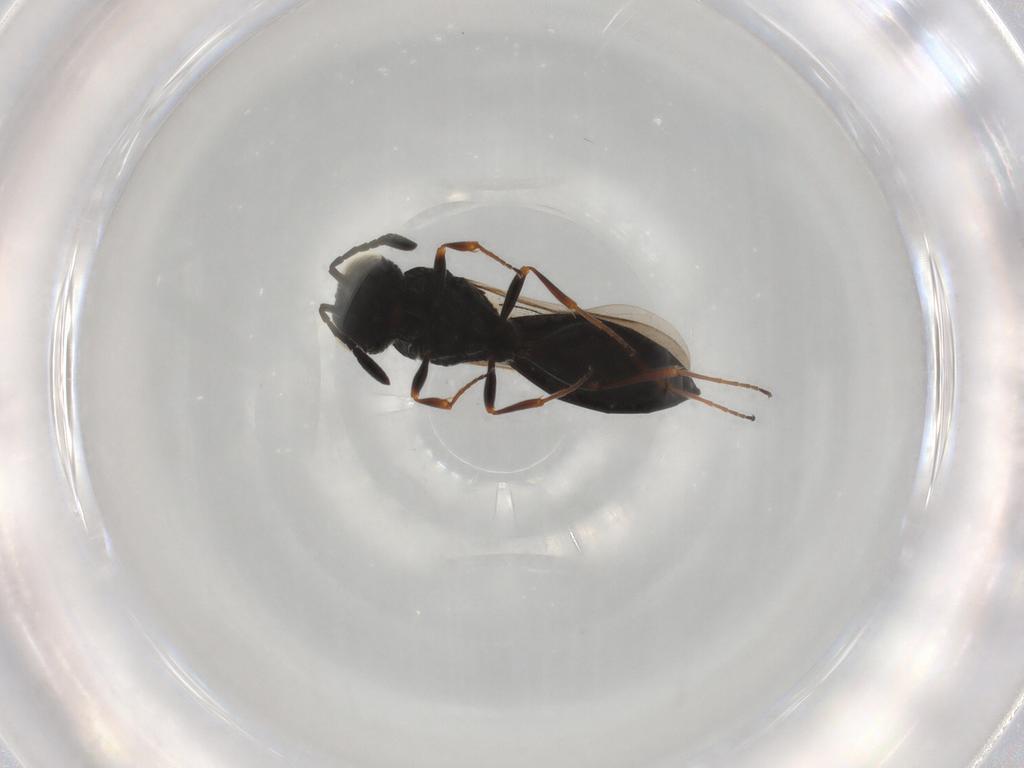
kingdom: Animalia
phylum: Arthropoda
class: Insecta
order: Hymenoptera
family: Scelionidae
